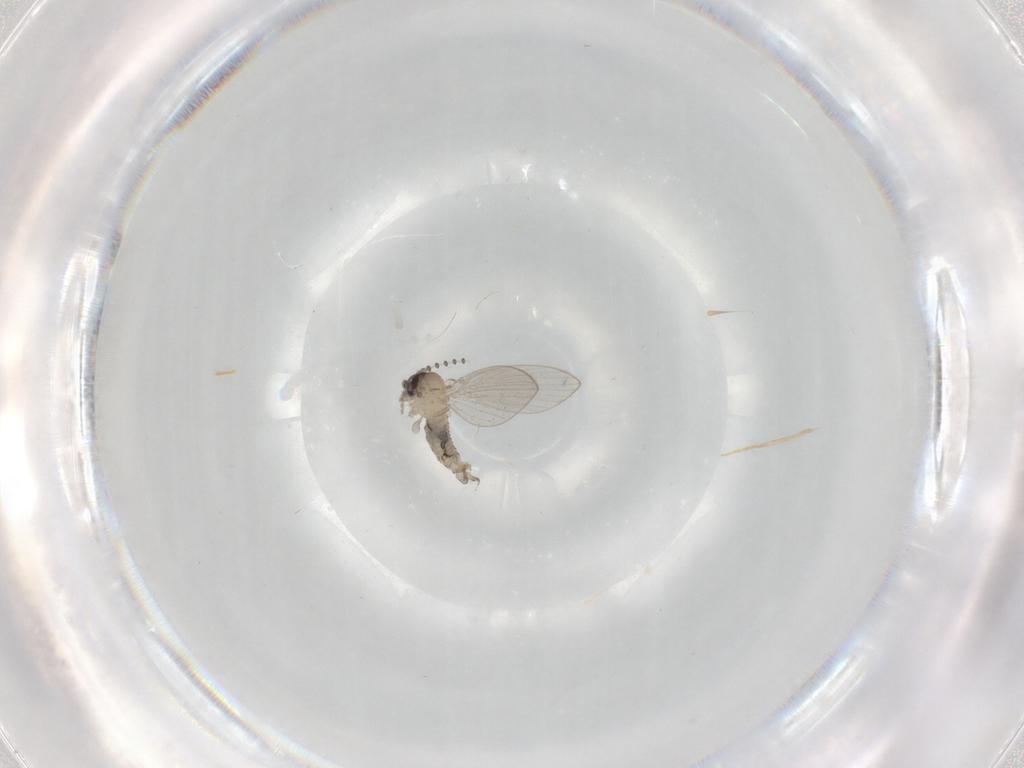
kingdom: Animalia
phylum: Arthropoda
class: Insecta
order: Diptera
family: Psychodidae
